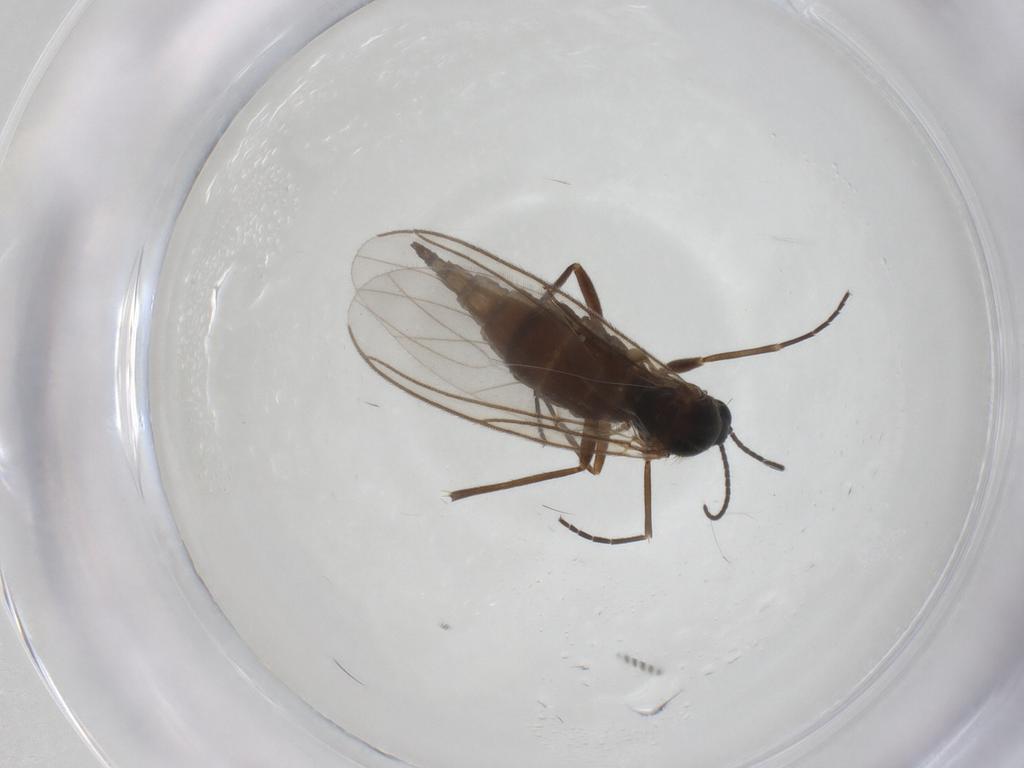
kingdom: Animalia
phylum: Arthropoda
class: Insecta
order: Diptera
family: Sciaridae
